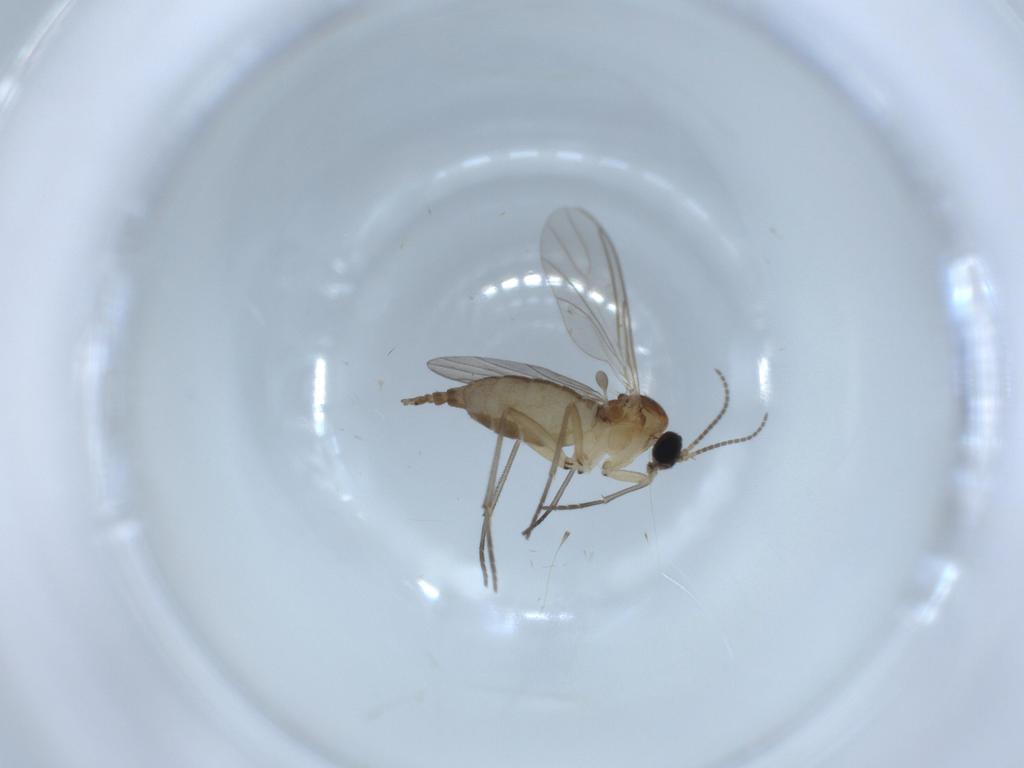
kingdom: Animalia
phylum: Arthropoda
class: Insecta
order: Diptera
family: Sciaridae
